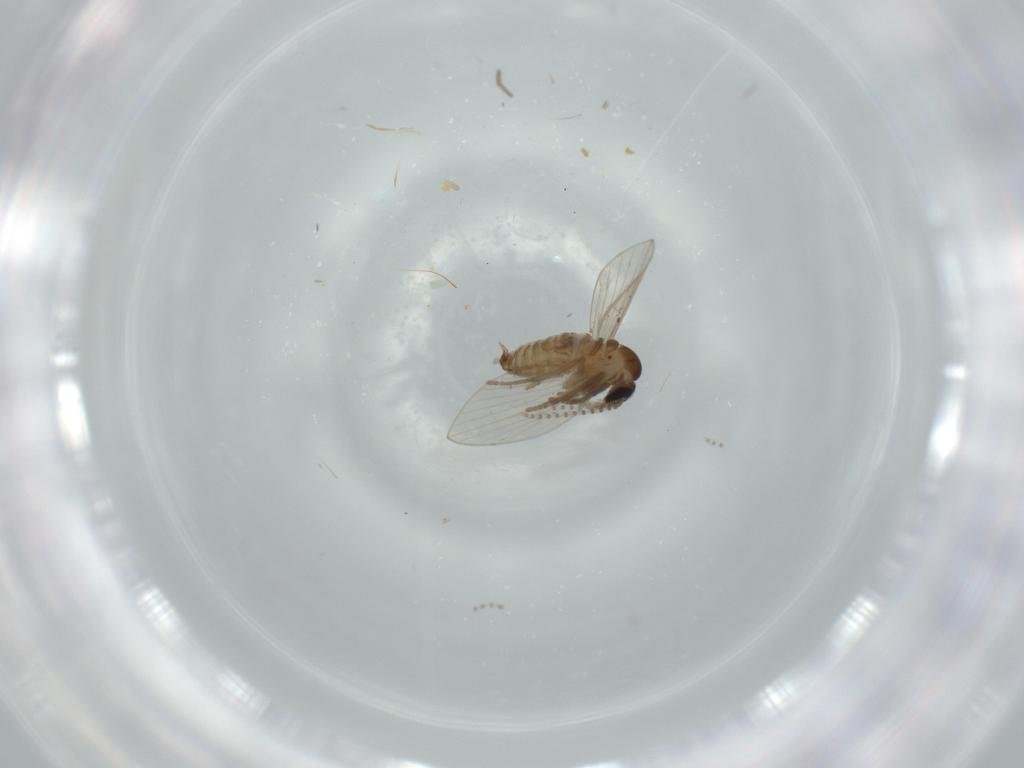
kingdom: Animalia
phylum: Arthropoda
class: Insecta
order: Diptera
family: Psychodidae
